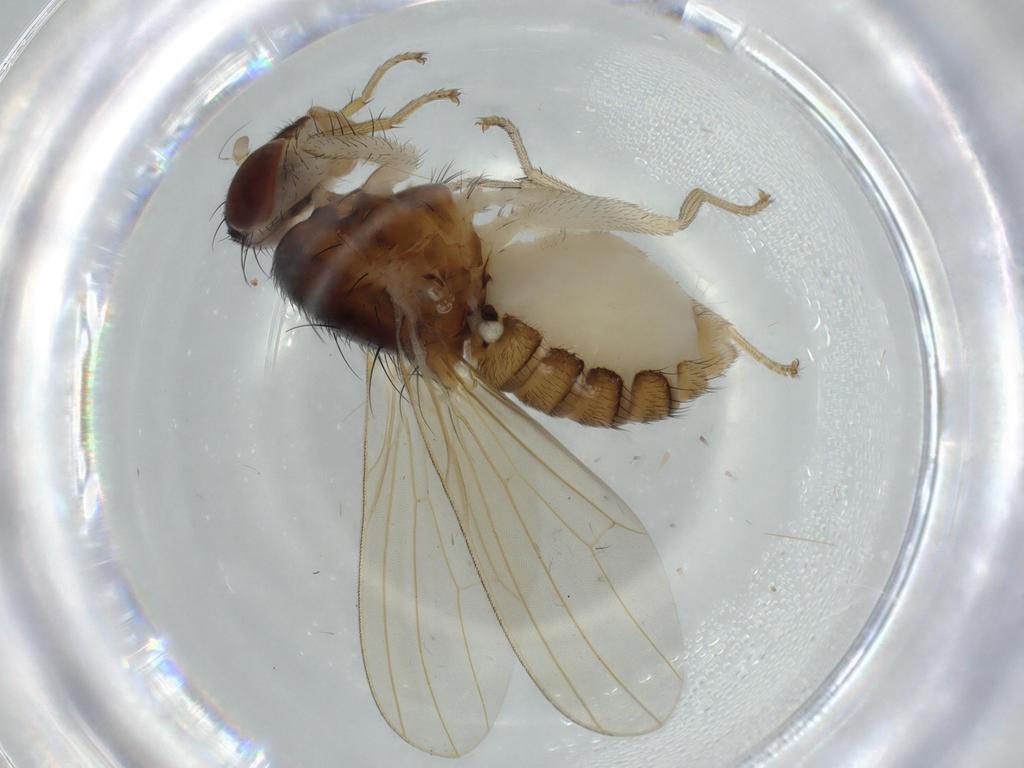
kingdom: Animalia
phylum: Arthropoda
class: Insecta
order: Diptera
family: Lauxaniidae
